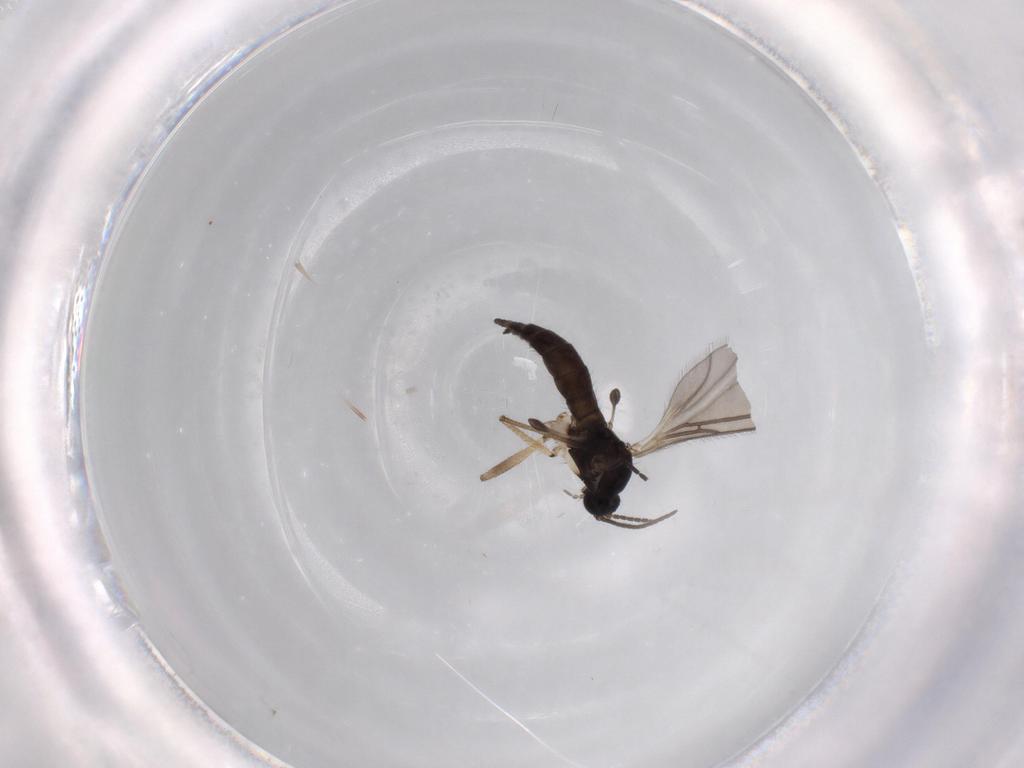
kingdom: Animalia
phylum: Arthropoda
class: Insecta
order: Diptera
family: Sciaridae
